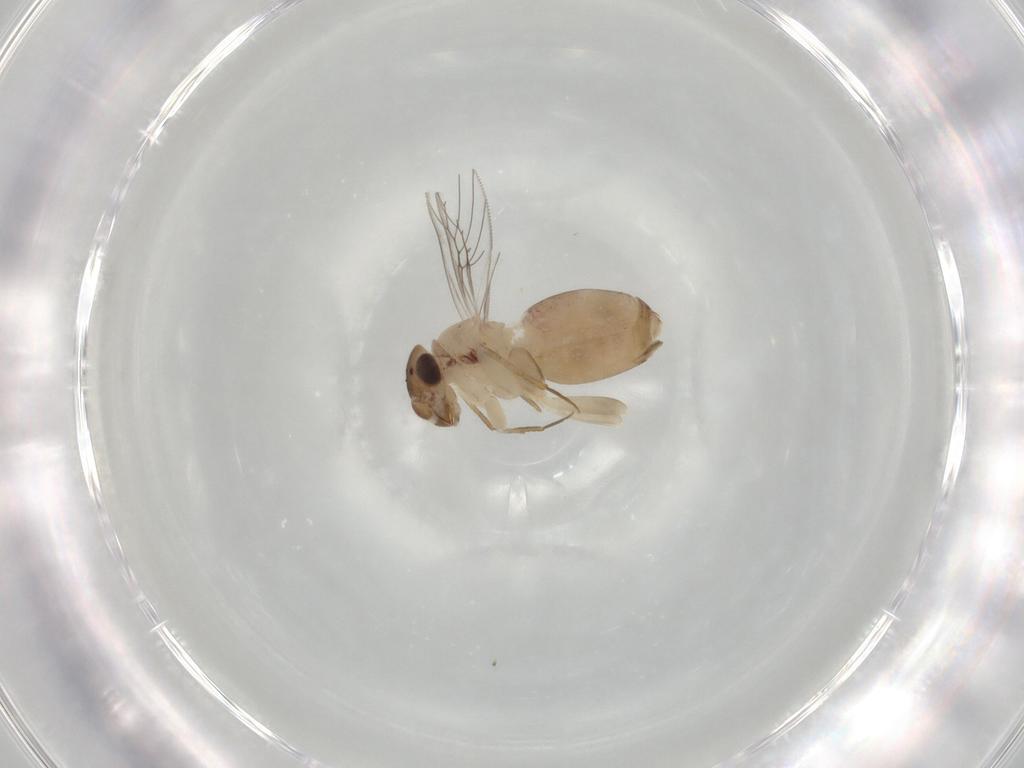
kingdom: Animalia
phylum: Arthropoda
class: Insecta
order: Psocodea
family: Lepidopsocidae
